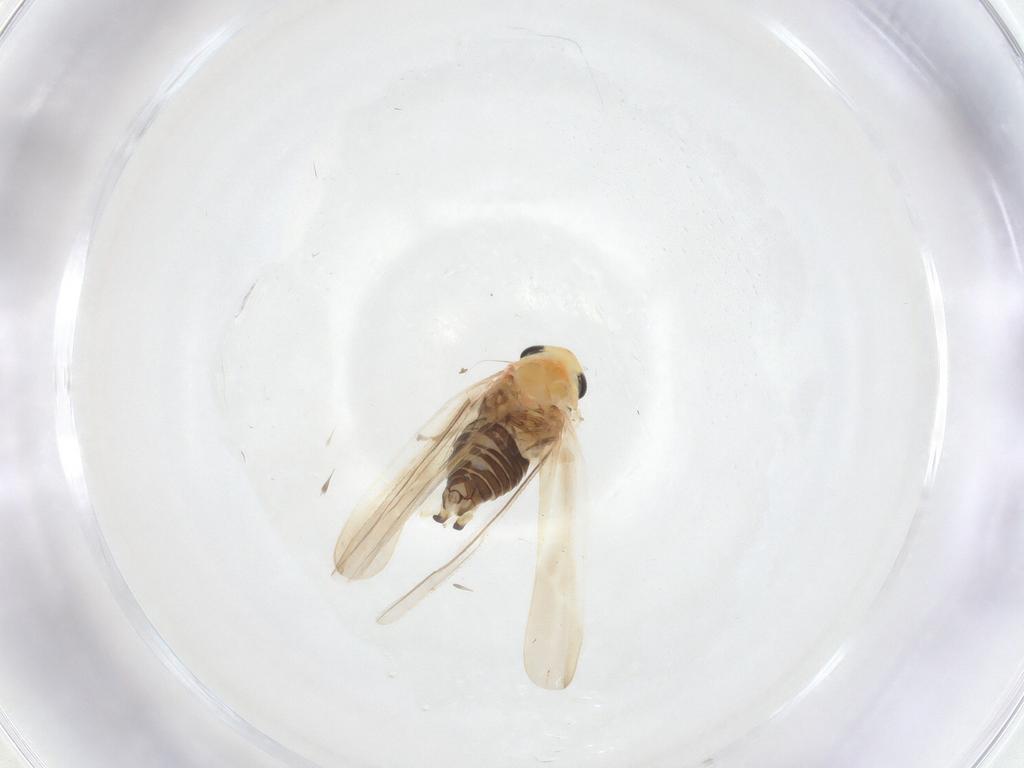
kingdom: Animalia
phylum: Arthropoda
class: Insecta
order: Hemiptera
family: Cicadellidae
